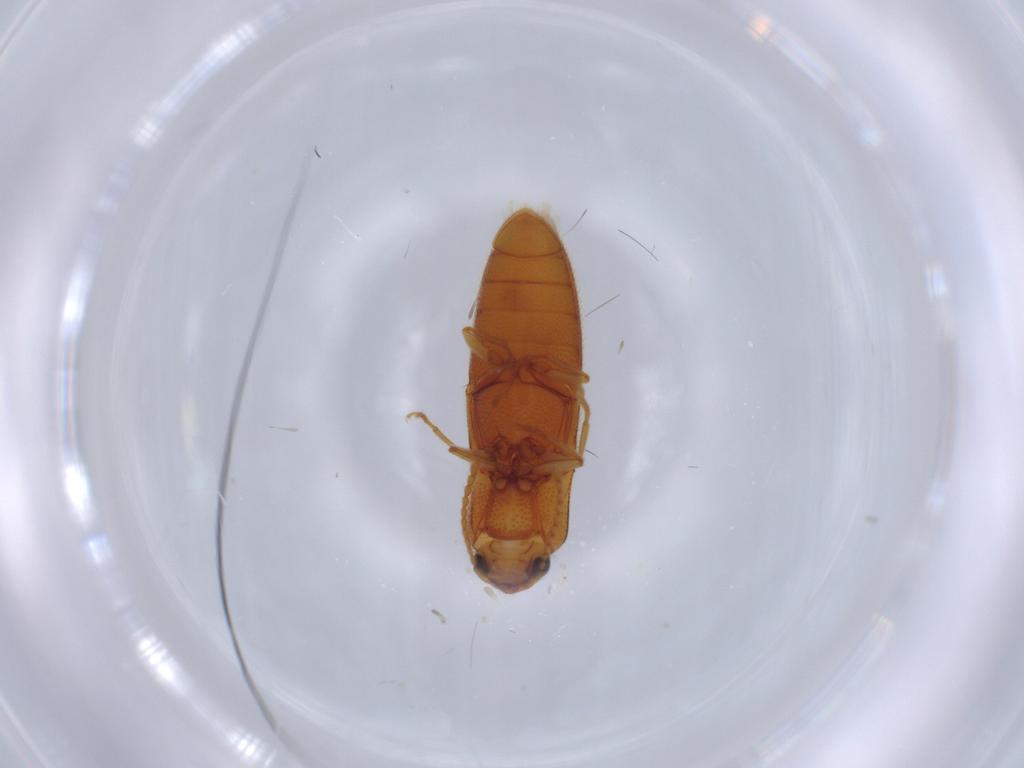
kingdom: Animalia
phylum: Arthropoda
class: Insecta
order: Coleoptera
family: Elateridae
